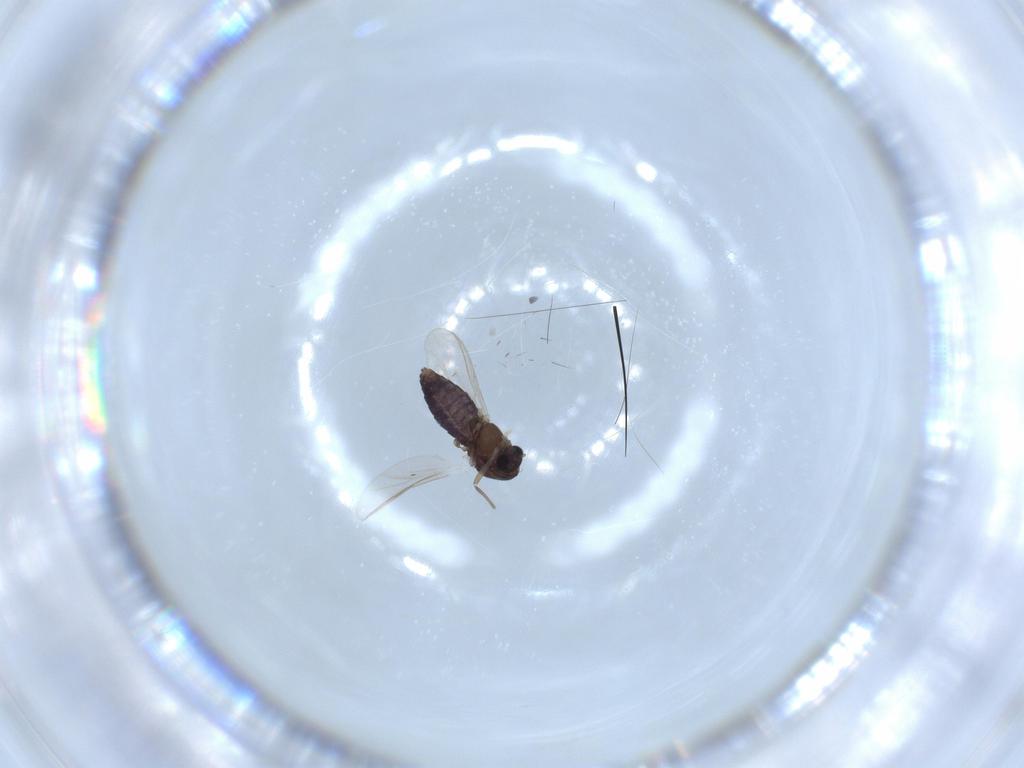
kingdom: Animalia
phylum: Arthropoda
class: Insecta
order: Diptera
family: Chironomidae
